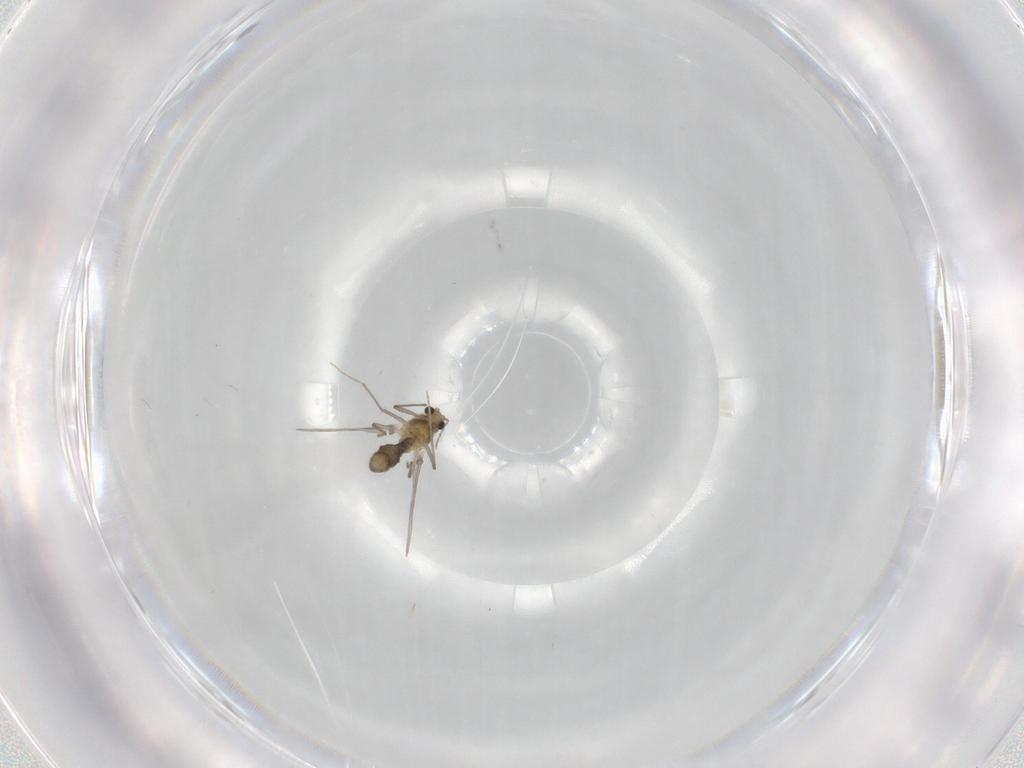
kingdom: Animalia
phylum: Arthropoda
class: Insecta
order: Diptera
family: Chironomidae
